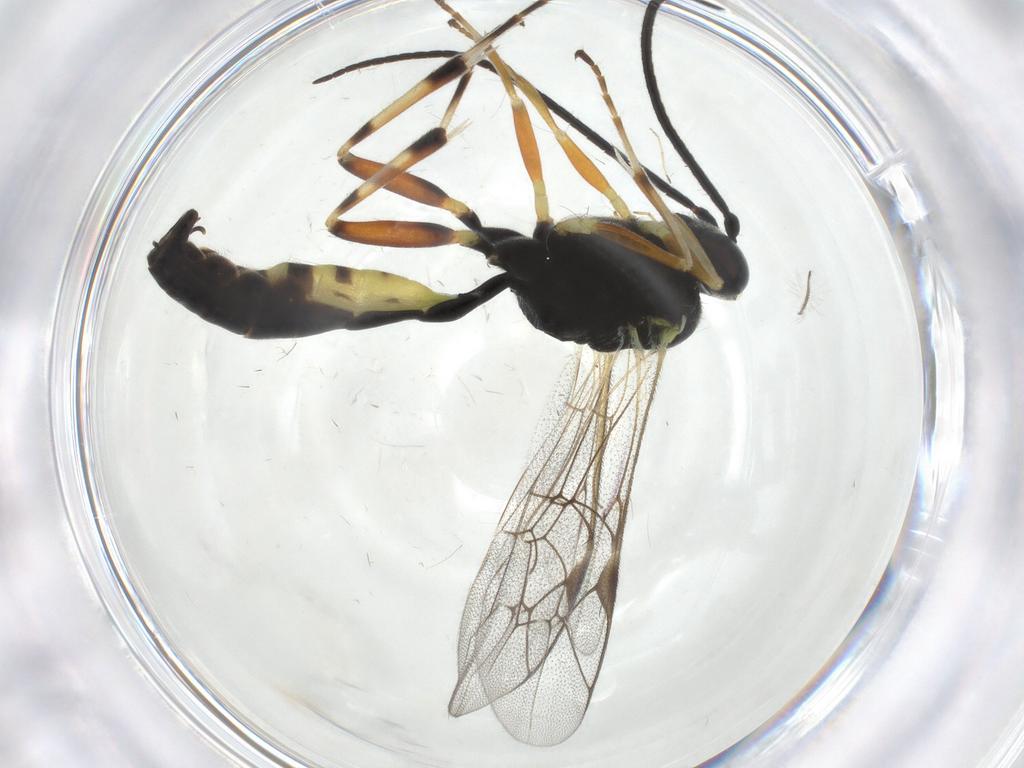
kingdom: Animalia
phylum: Arthropoda
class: Insecta
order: Hymenoptera
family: Ichneumonidae
